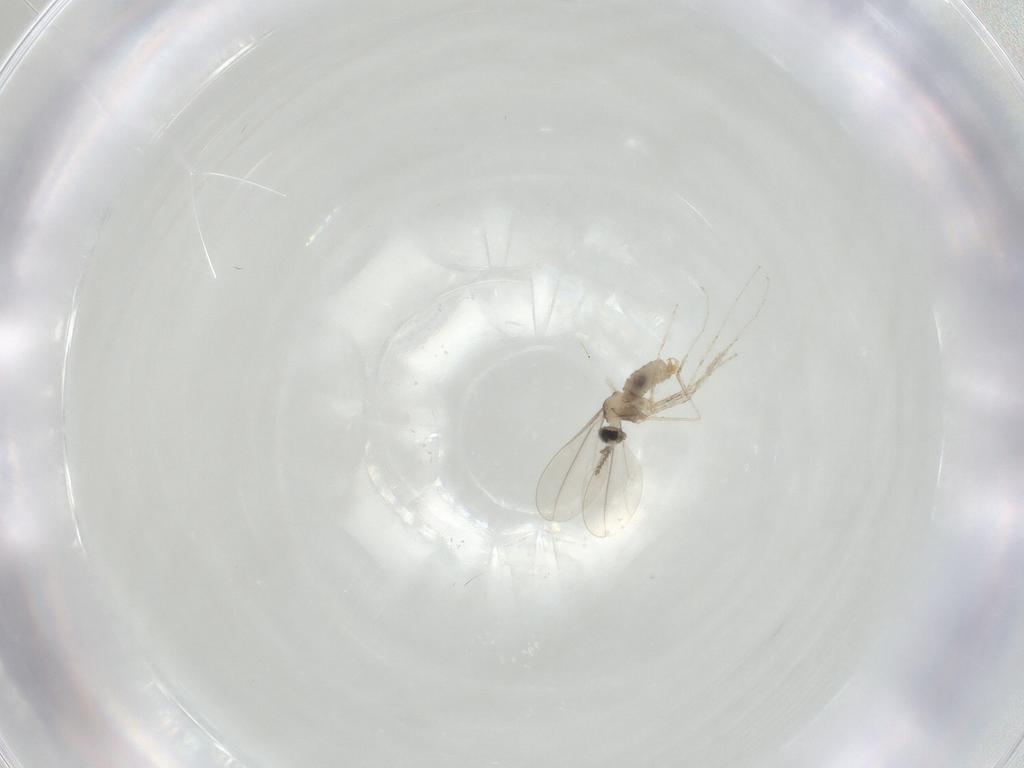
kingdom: Animalia
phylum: Arthropoda
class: Insecta
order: Diptera
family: Cecidomyiidae
